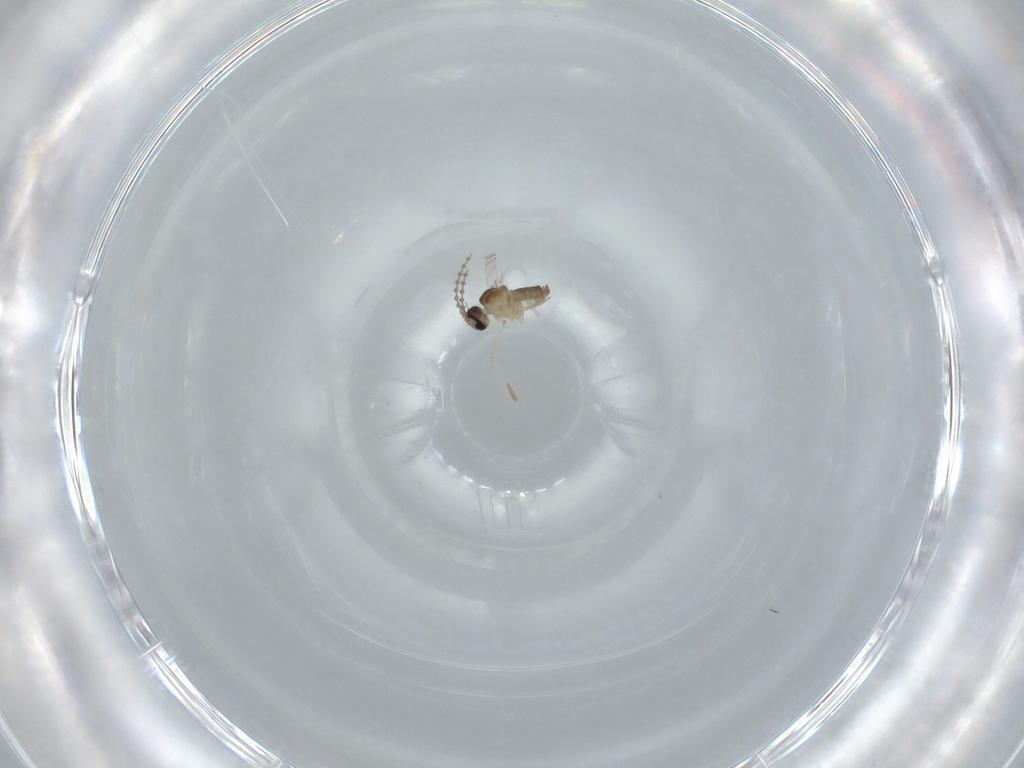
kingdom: Animalia
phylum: Arthropoda
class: Insecta
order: Diptera
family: Cecidomyiidae
